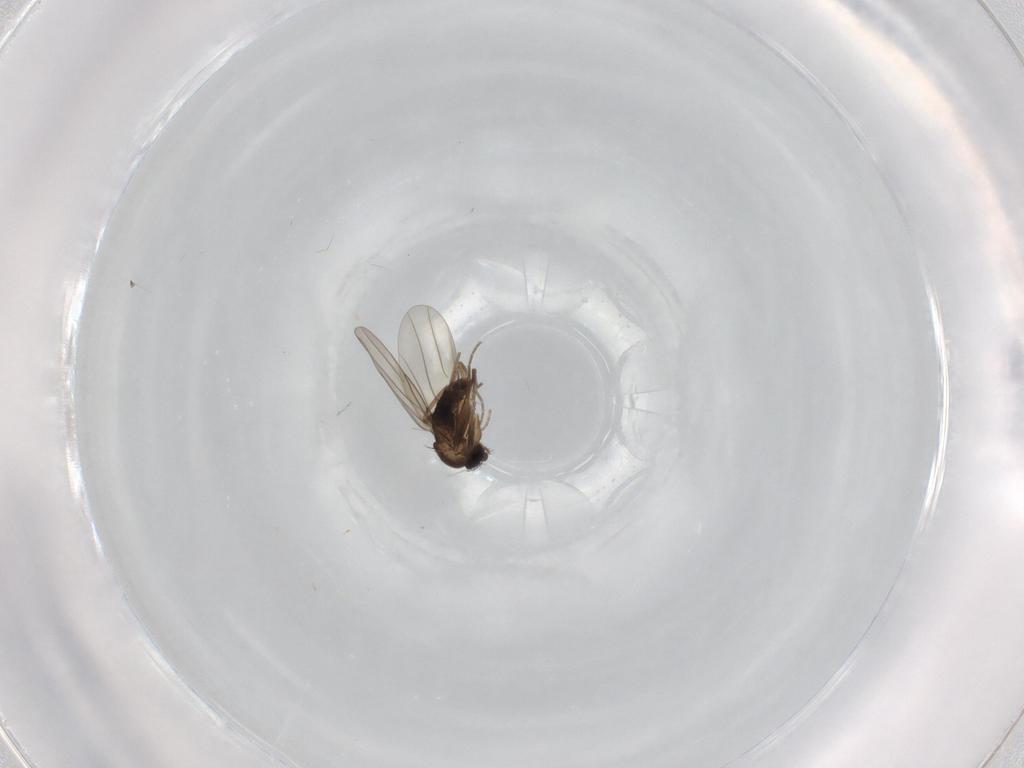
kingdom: Animalia
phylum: Arthropoda
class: Insecta
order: Diptera
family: Phoridae
